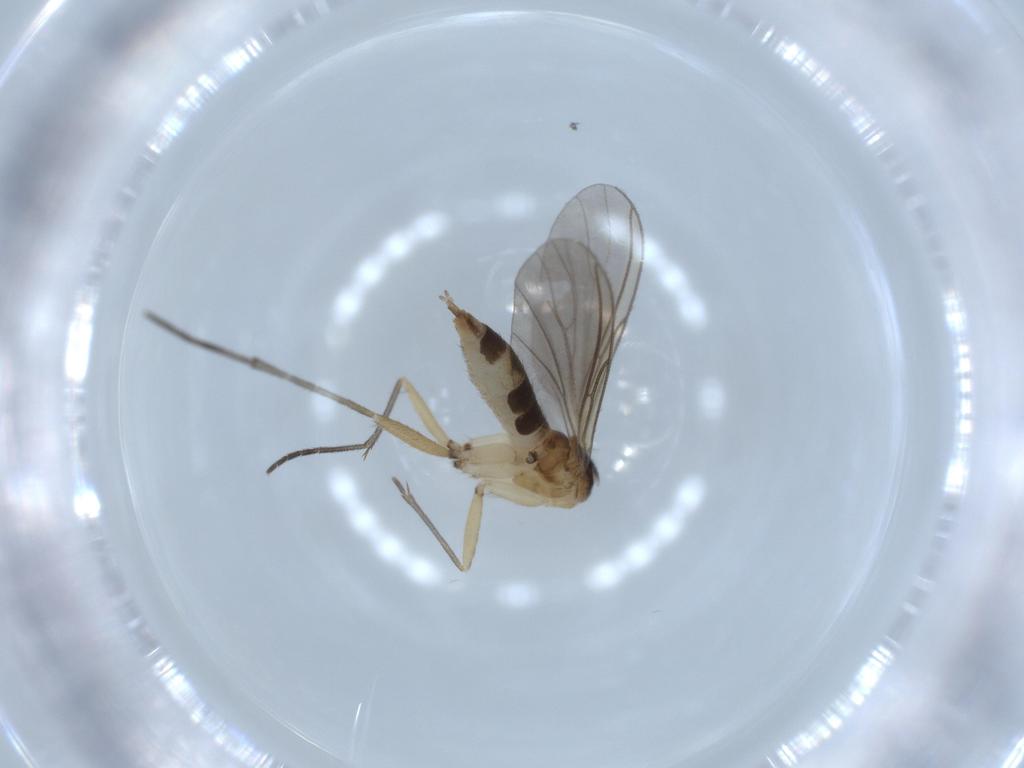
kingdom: Animalia
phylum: Arthropoda
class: Insecta
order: Diptera
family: Sciaridae
